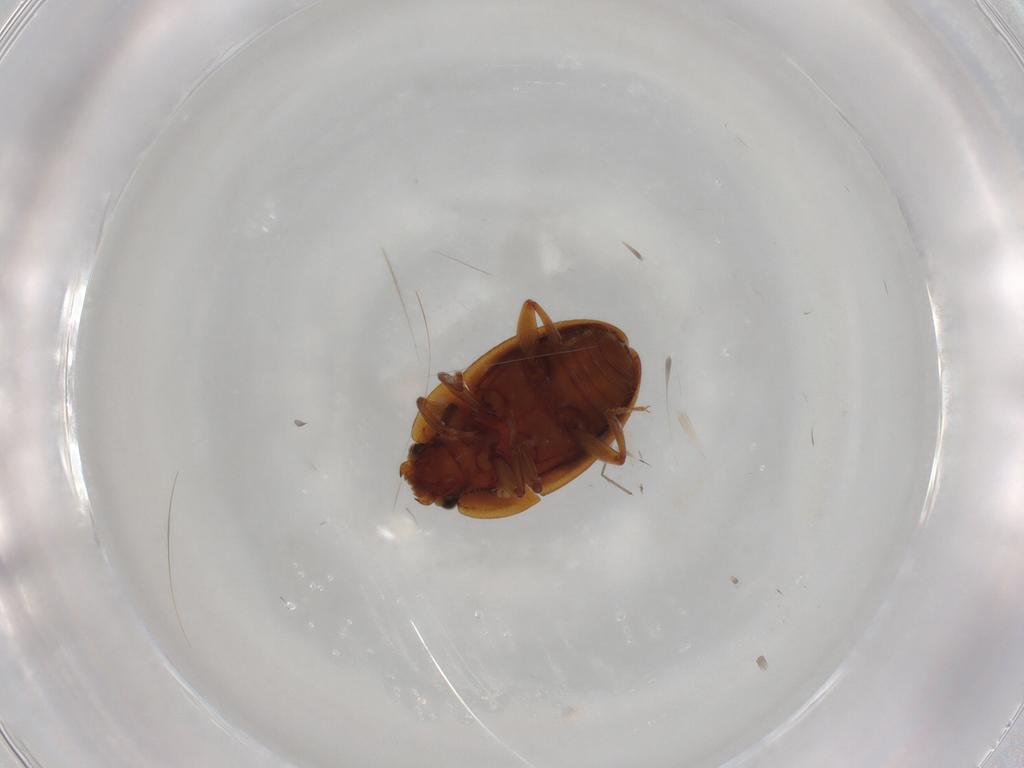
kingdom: Animalia
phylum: Arthropoda
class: Insecta
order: Coleoptera
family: Nitidulidae
